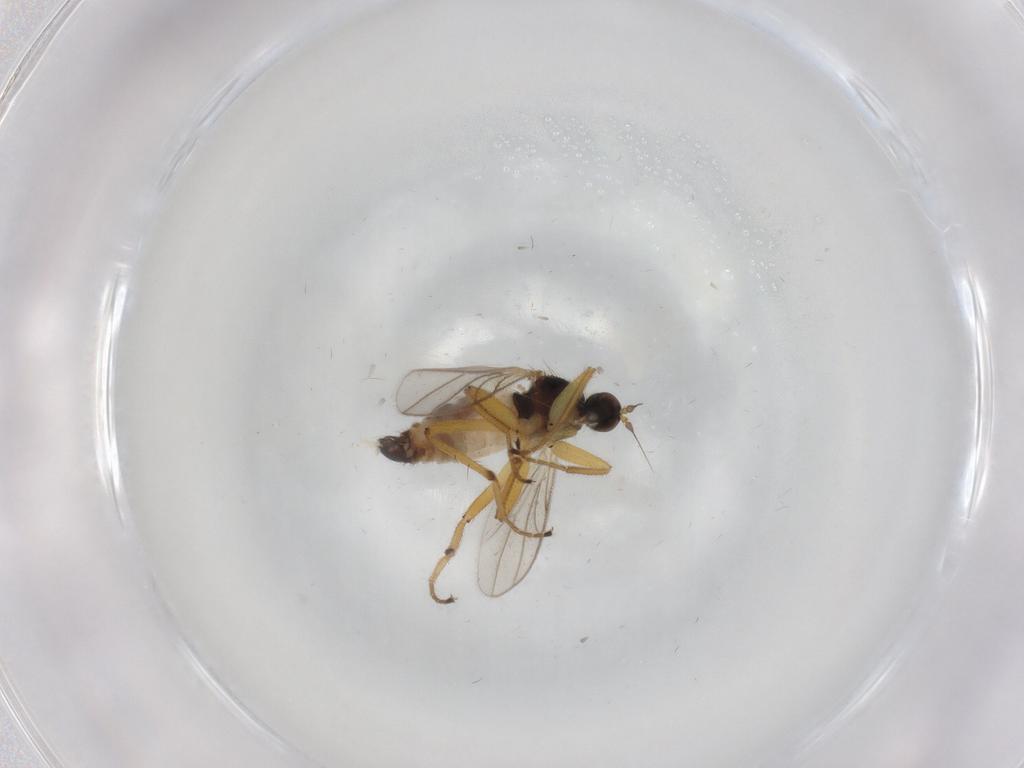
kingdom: Animalia
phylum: Arthropoda
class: Insecta
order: Diptera
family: Hybotidae
